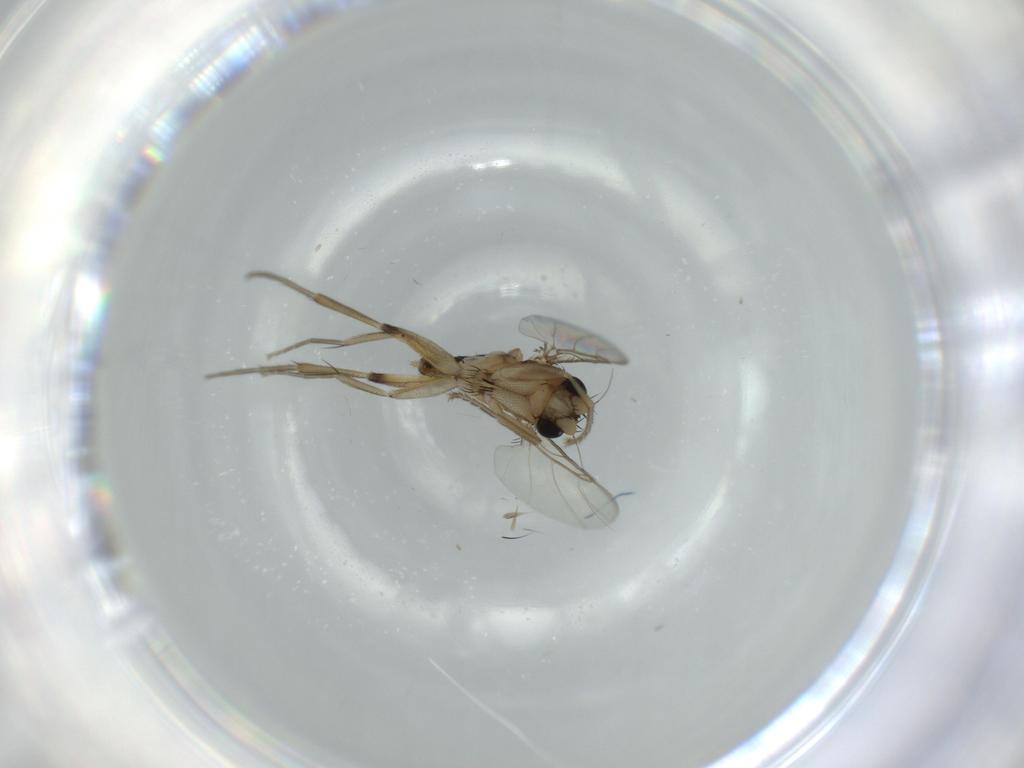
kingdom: Animalia
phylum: Arthropoda
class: Insecta
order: Diptera
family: Phoridae
